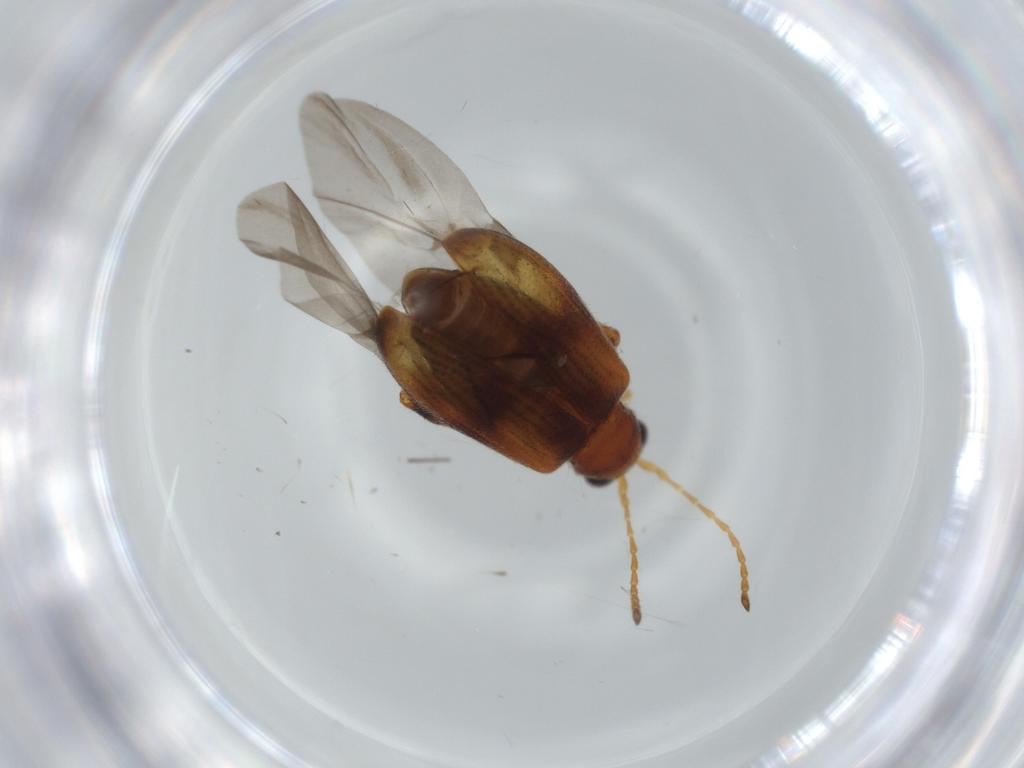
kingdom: Animalia
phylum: Arthropoda
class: Insecta
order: Coleoptera
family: Chrysomelidae
